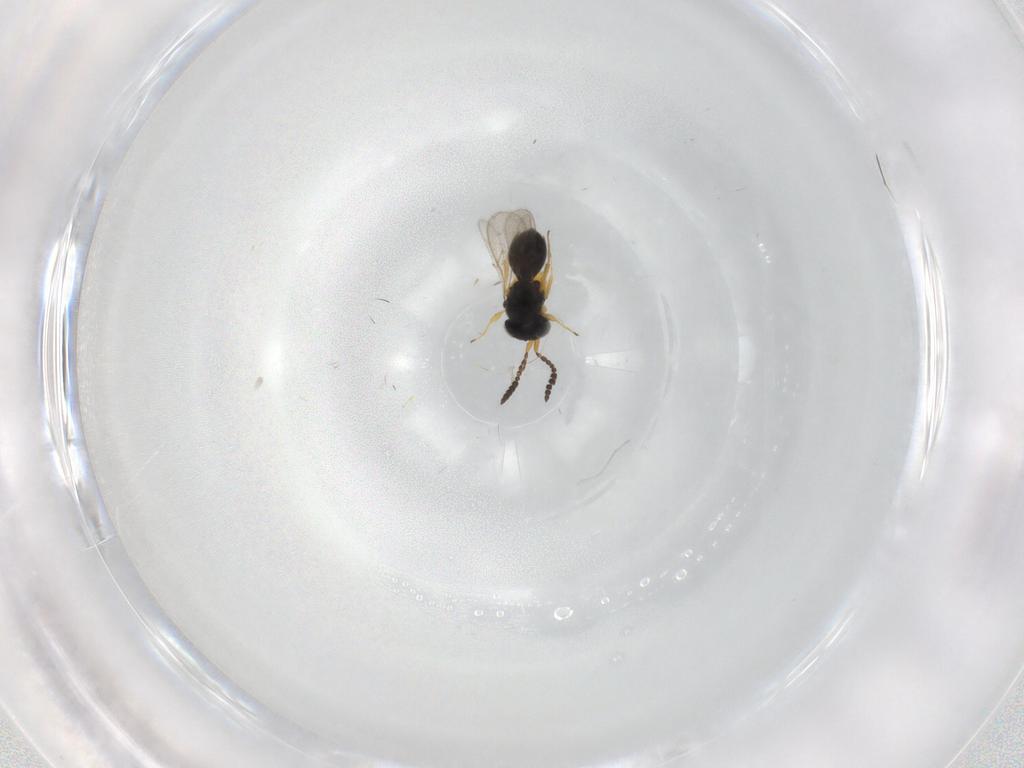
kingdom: Animalia
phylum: Arthropoda
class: Insecta
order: Hymenoptera
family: Scelionidae
